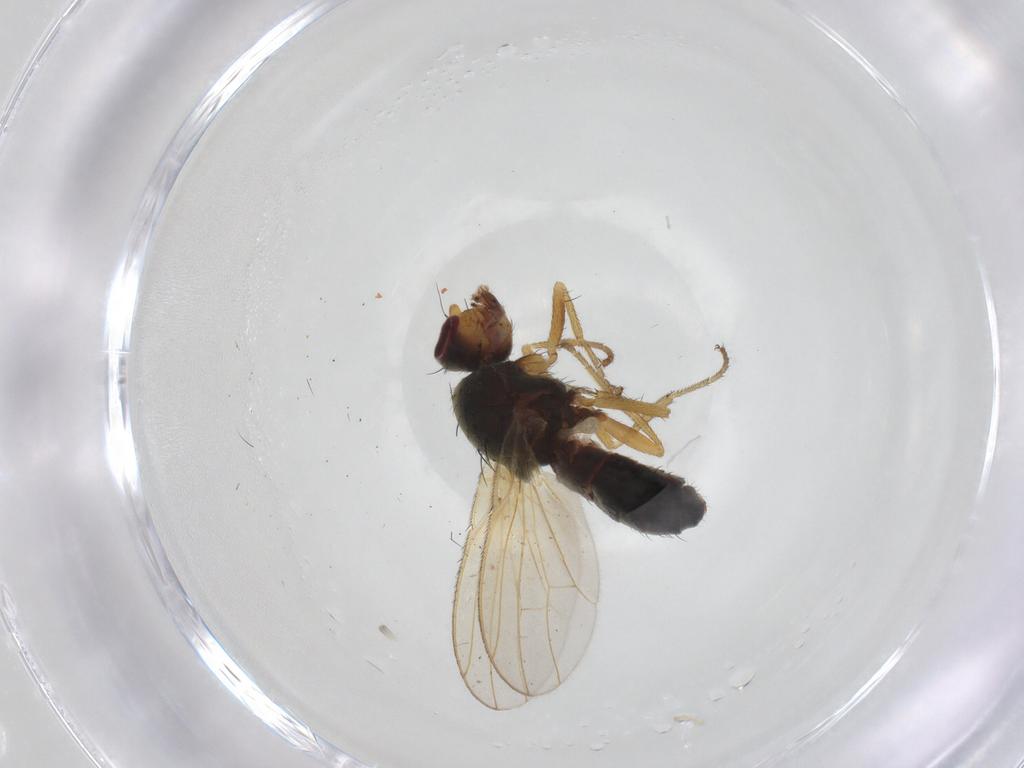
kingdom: Animalia
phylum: Arthropoda
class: Insecta
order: Diptera
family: Heleomyzidae
